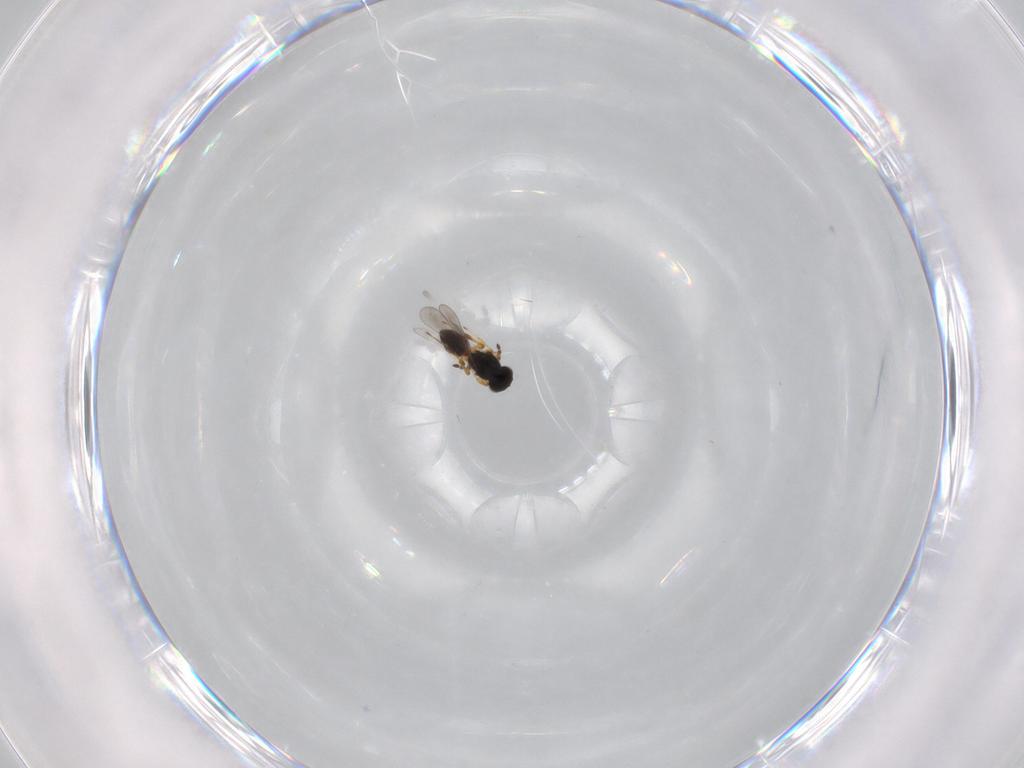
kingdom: Animalia
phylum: Arthropoda
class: Insecta
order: Hymenoptera
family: Platygastridae
